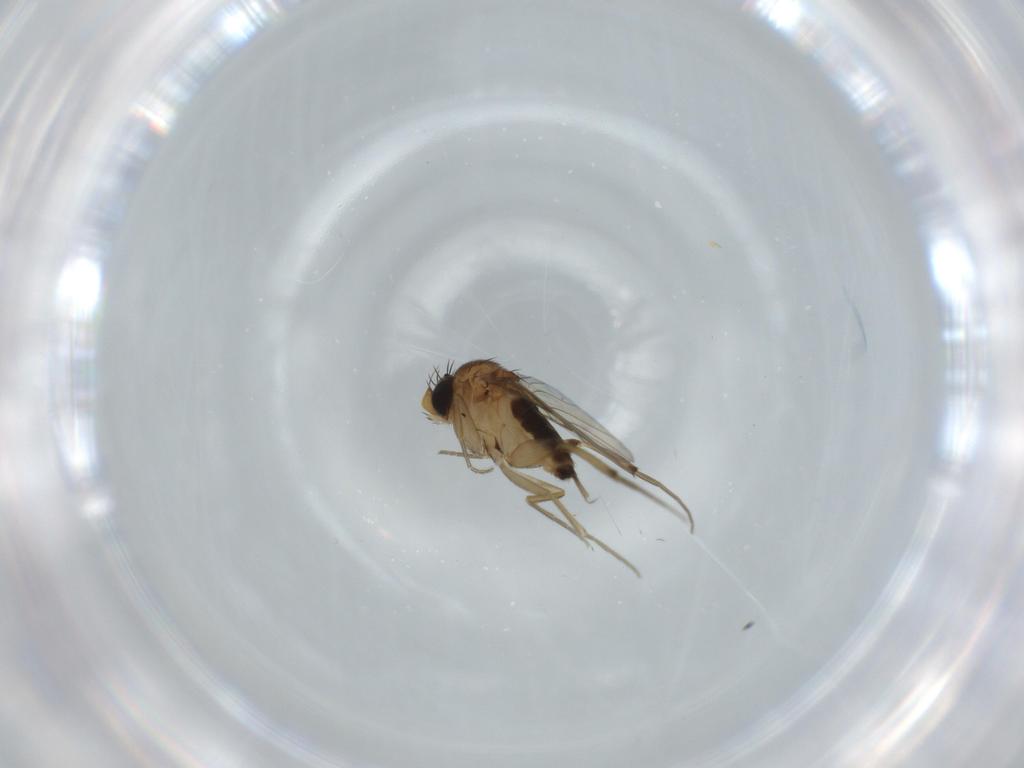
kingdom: Animalia
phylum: Arthropoda
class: Insecta
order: Diptera
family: Phoridae
